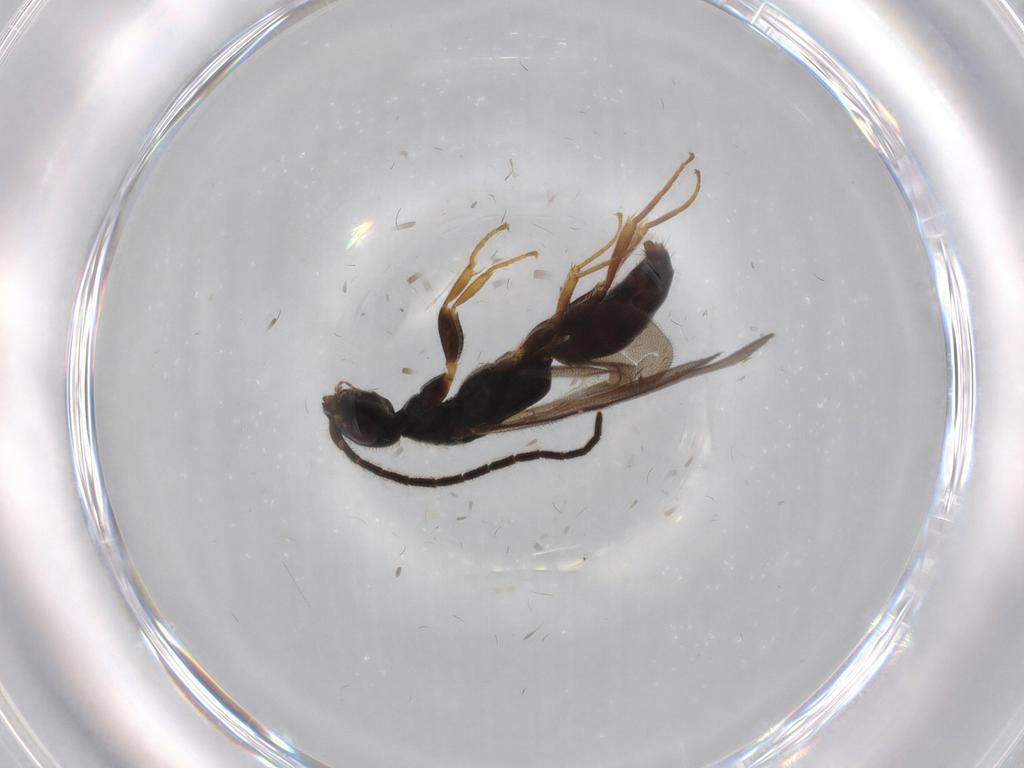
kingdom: Animalia
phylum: Arthropoda
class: Insecta
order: Hymenoptera
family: Bethylidae
